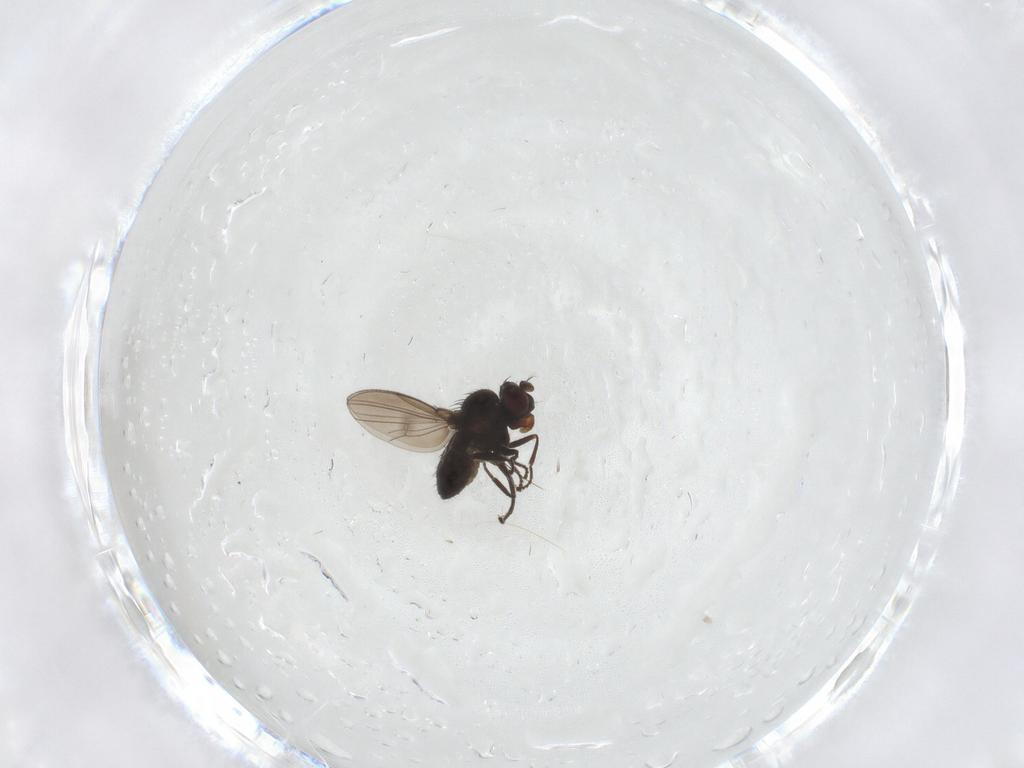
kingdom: Animalia
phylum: Arthropoda
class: Insecta
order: Diptera
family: Ephydridae
